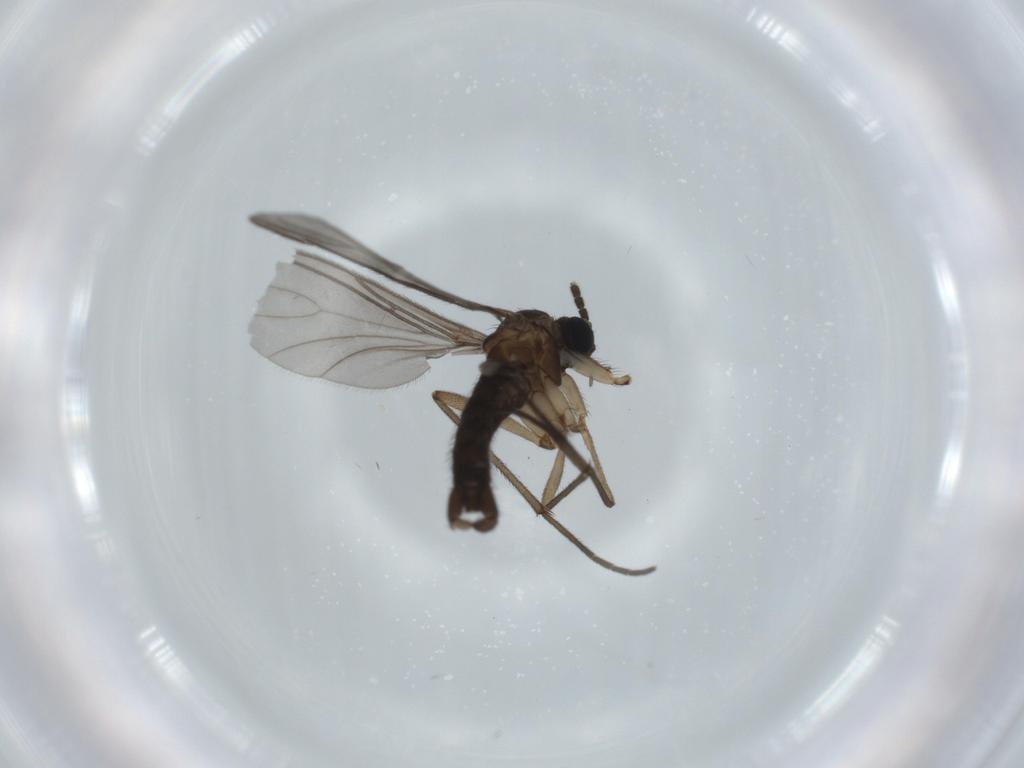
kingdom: Animalia
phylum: Arthropoda
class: Insecta
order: Diptera
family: Sciaridae
